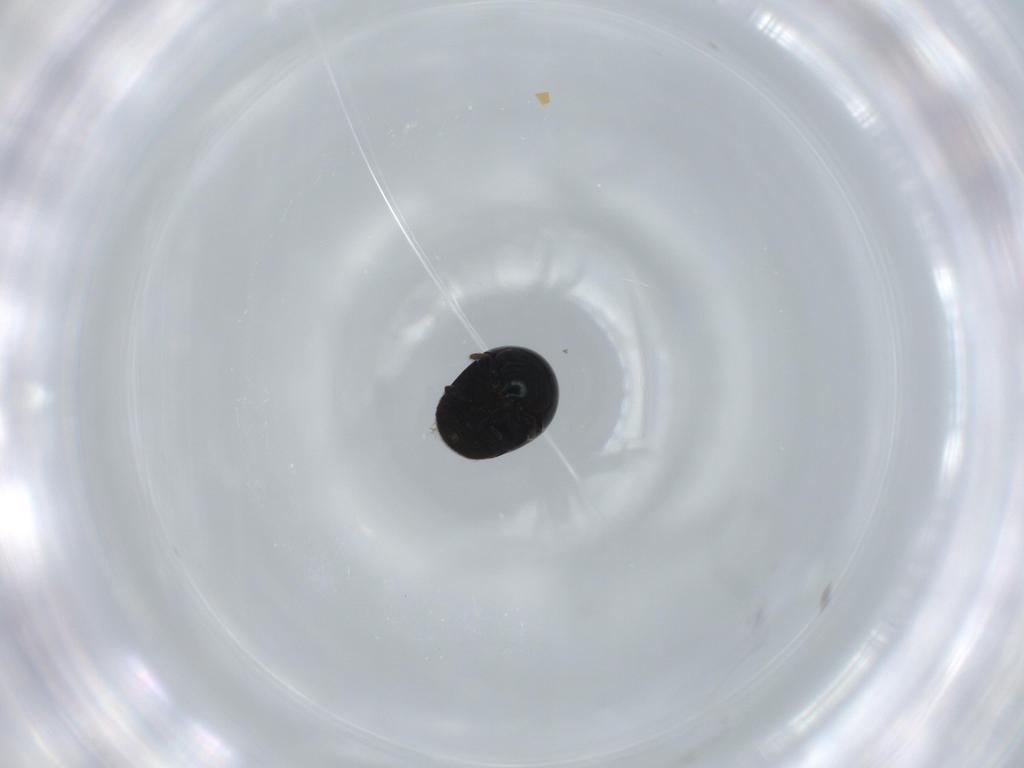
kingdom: Animalia
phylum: Arthropoda
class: Insecta
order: Coleoptera
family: Cybocephalidae
